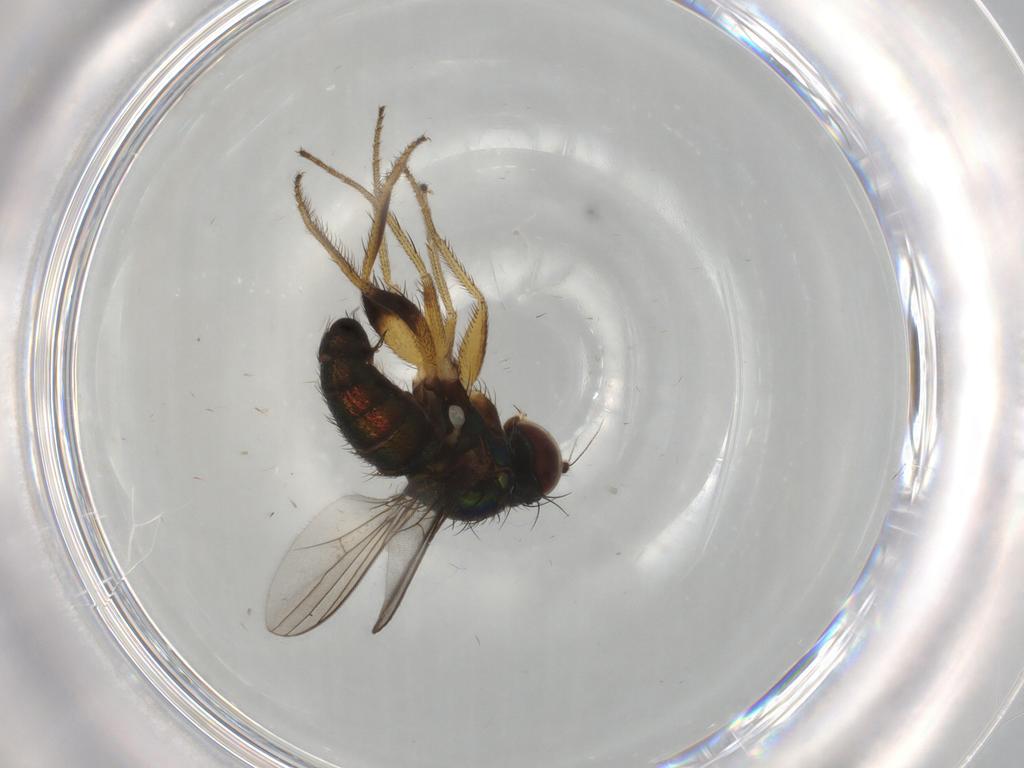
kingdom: Animalia
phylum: Arthropoda
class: Insecta
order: Diptera
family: Dolichopodidae
